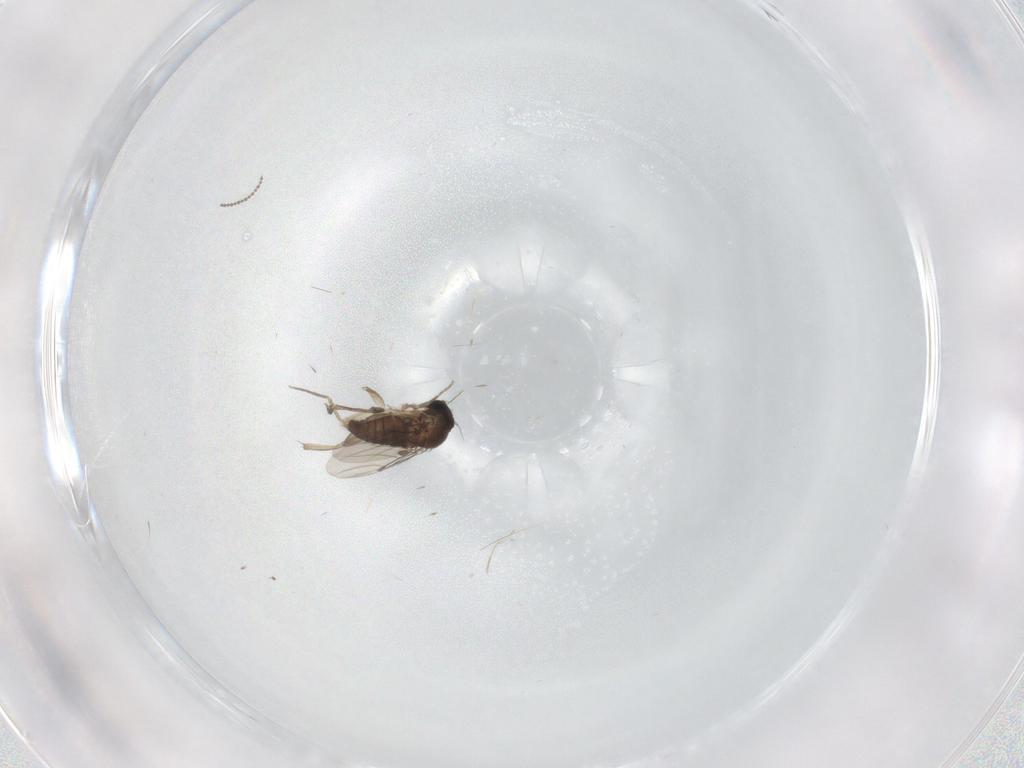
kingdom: Animalia
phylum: Arthropoda
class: Insecta
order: Diptera
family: Phoridae
